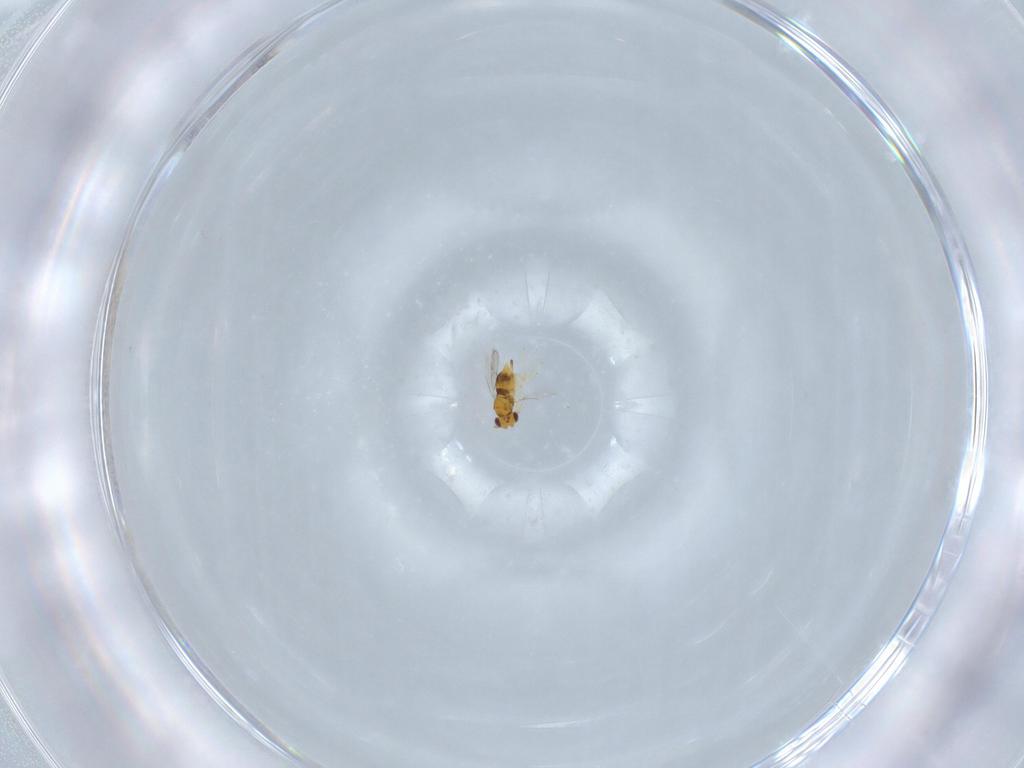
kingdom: Animalia
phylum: Arthropoda
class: Insecta
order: Hymenoptera
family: Aphelinidae
